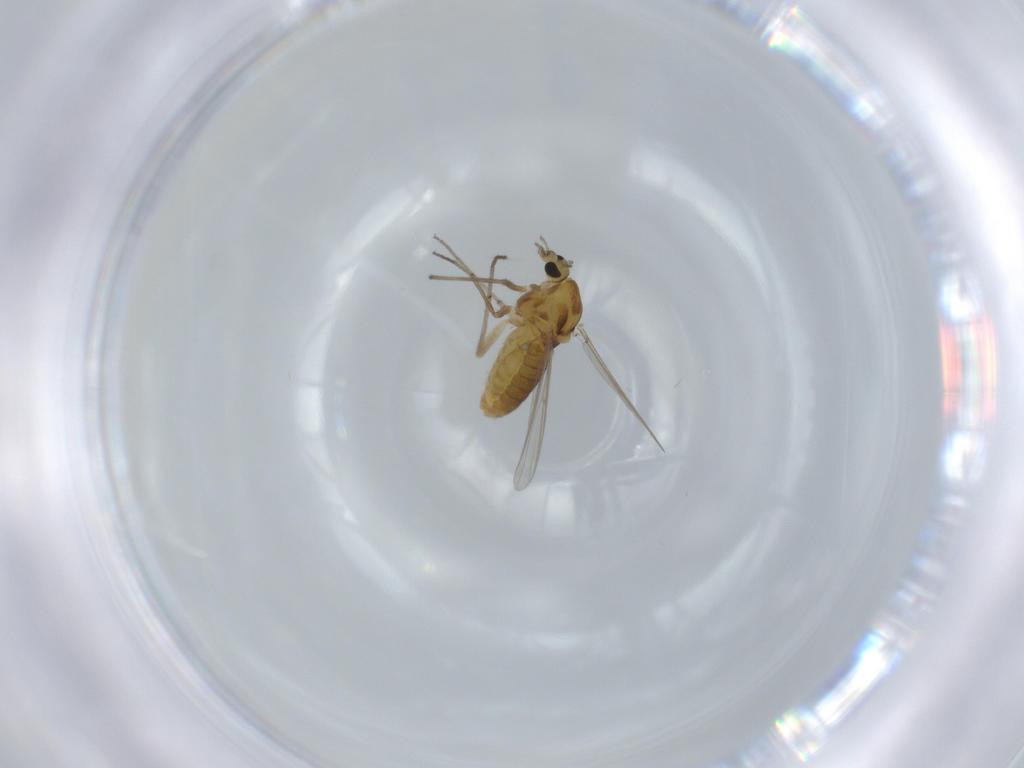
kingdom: Animalia
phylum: Arthropoda
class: Insecta
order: Diptera
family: Chironomidae
